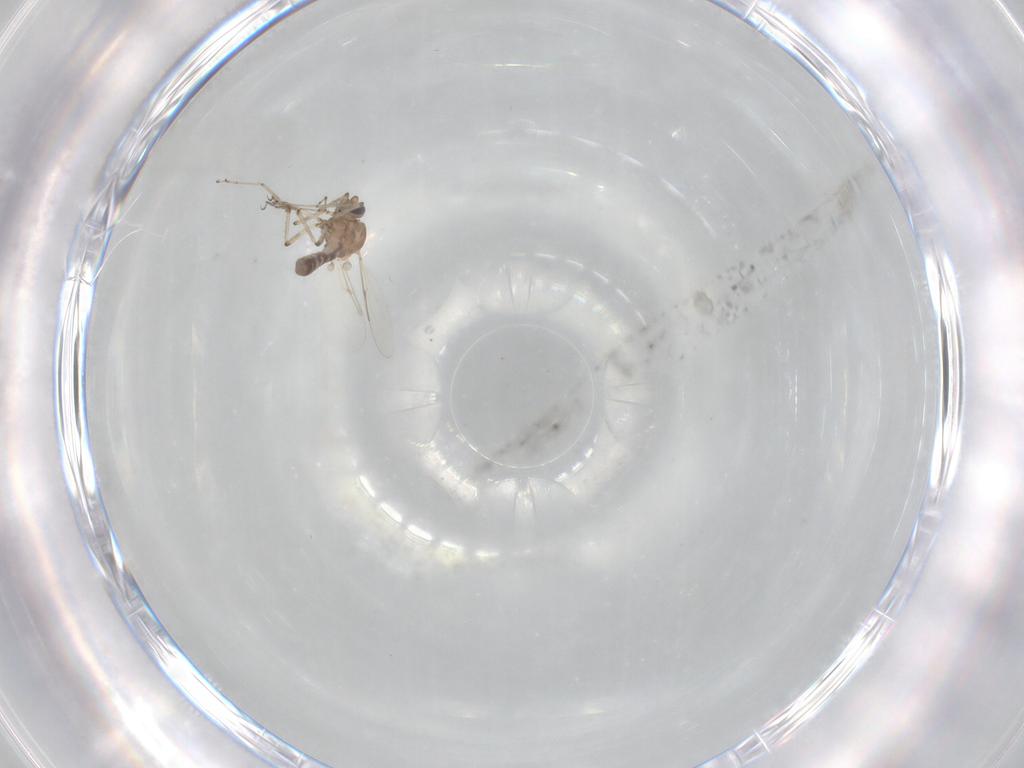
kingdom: Animalia
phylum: Arthropoda
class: Insecta
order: Diptera
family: Ceratopogonidae
